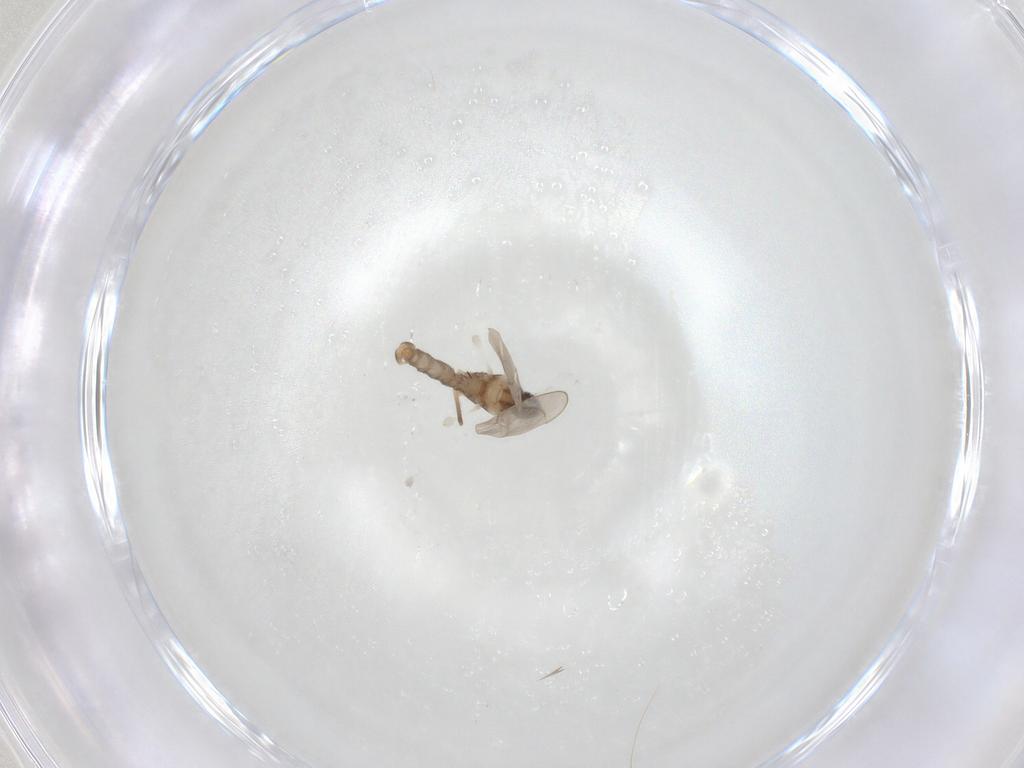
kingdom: Animalia
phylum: Arthropoda
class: Insecta
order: Diptera
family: Cecidomyiidae
